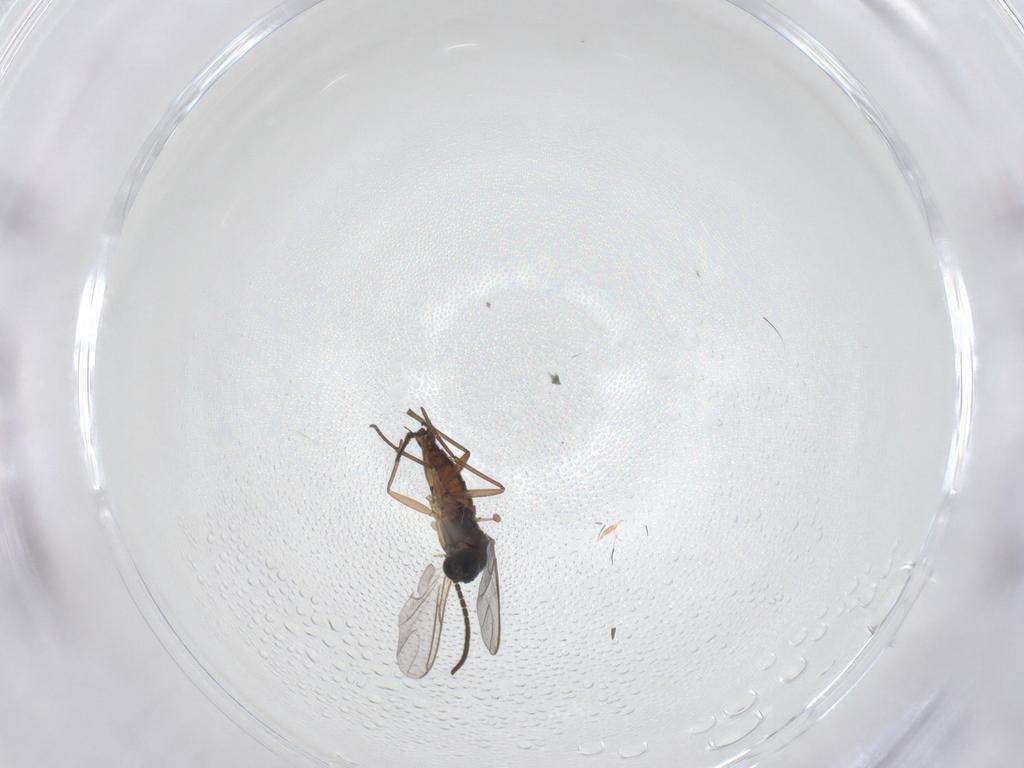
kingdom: Animalia
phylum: Arthropoda
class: Insecta
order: Diptera
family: Sciaridae
